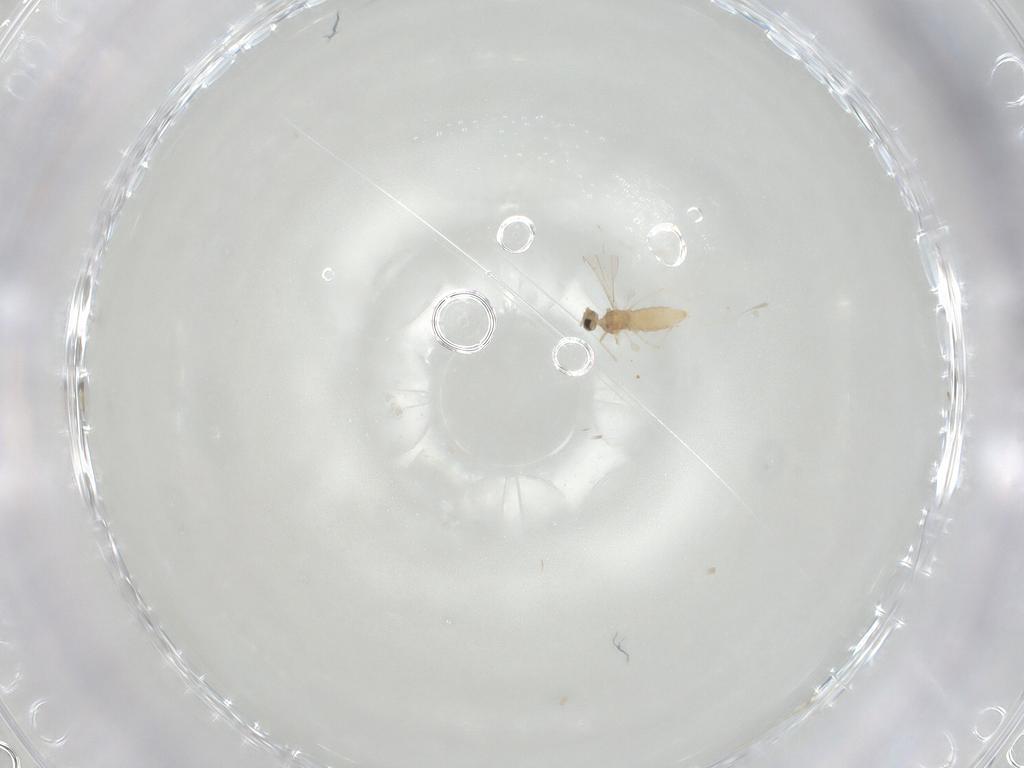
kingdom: Animalia
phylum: Arthropoda
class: Insecta
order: Diptera
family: Cecidomyiidae
